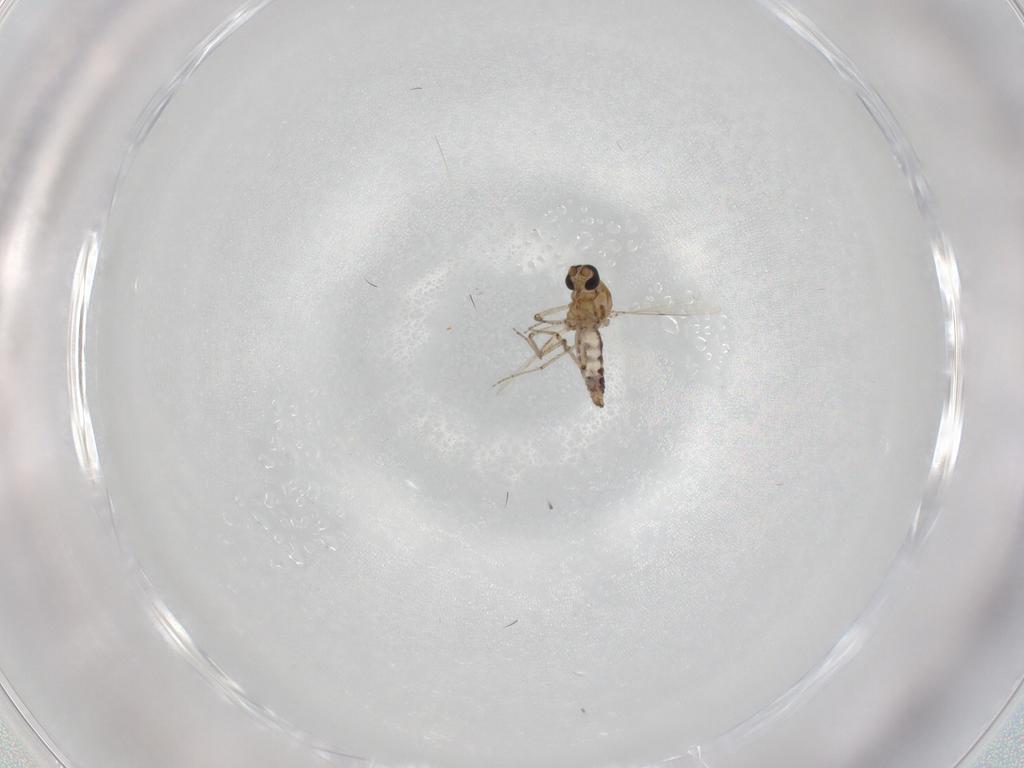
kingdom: Animalia
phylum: Arthropoda
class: Insecta
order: Diptera
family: Ceratopogonidae
